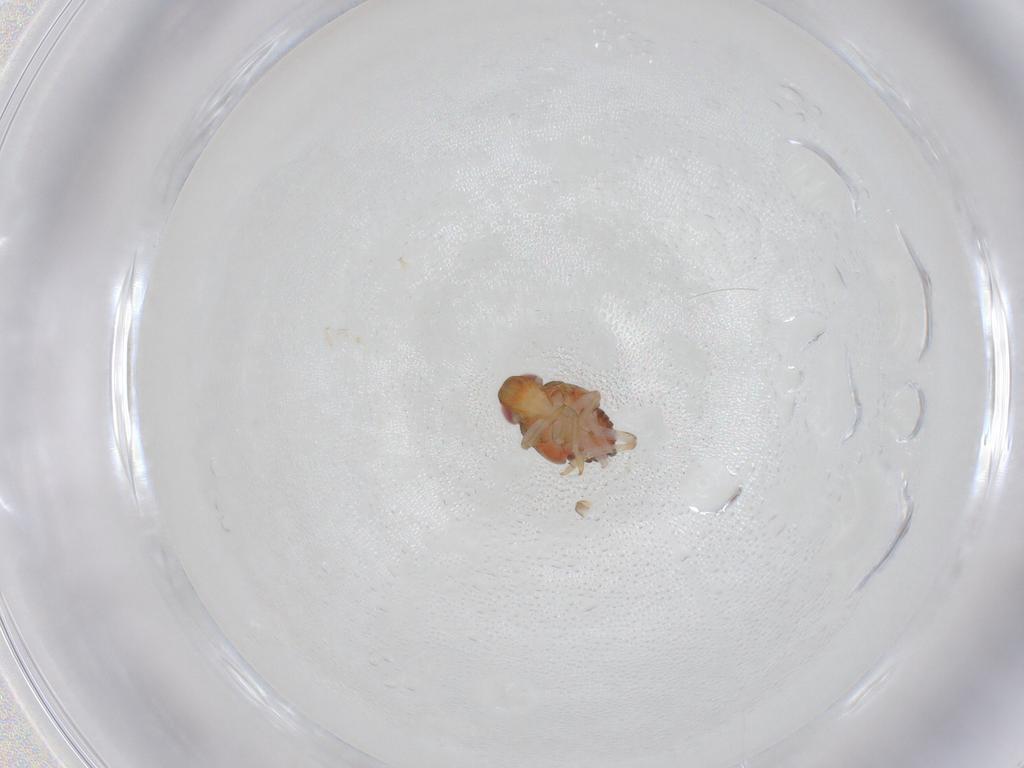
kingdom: Animalia
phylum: Arthropoda
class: Insecta
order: Hemiptera
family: Issidae
